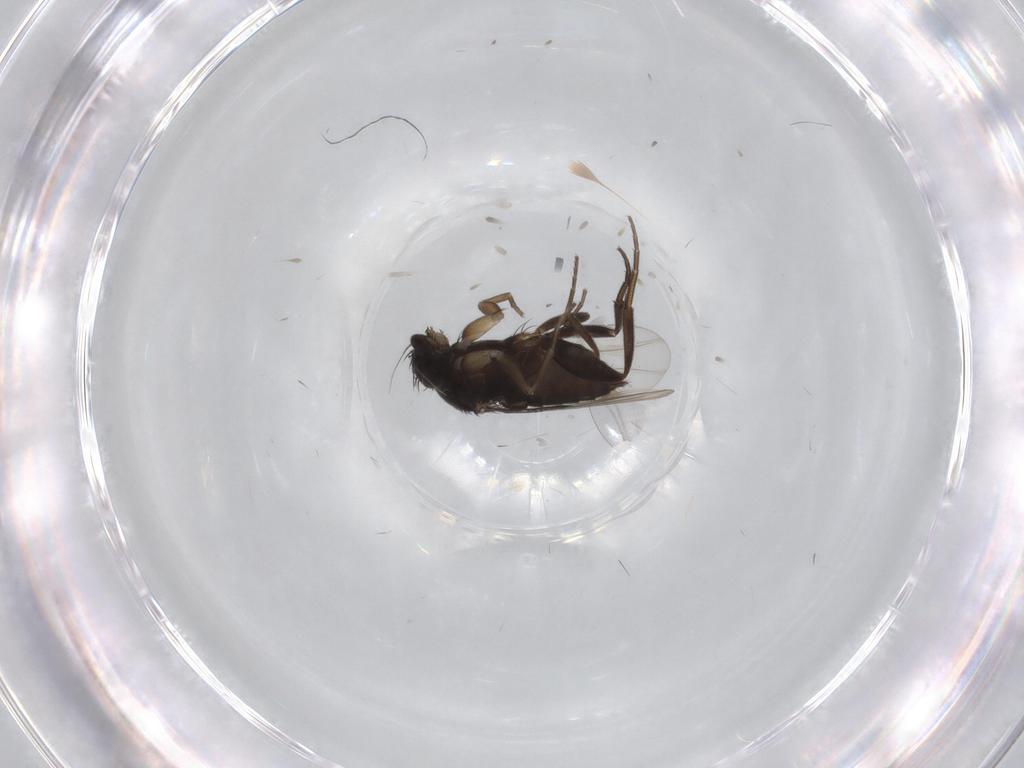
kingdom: Animalia
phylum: Arthropoda
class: Insecta
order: Diptera
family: Phoridae
